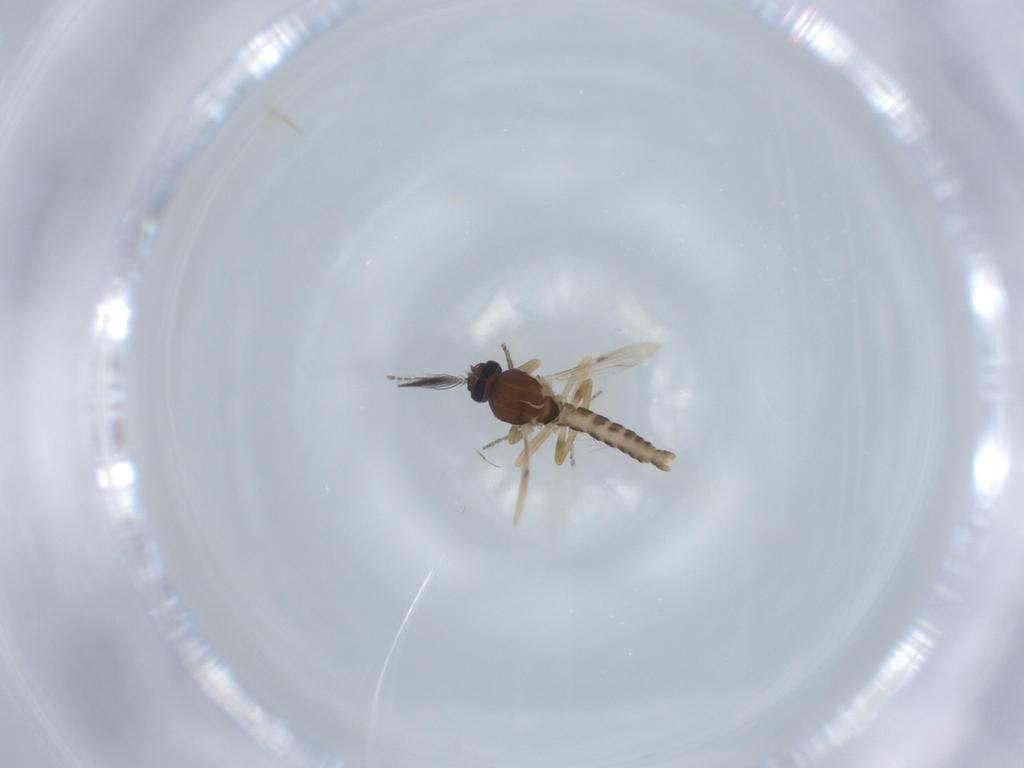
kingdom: Animalia
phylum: Arthropoda
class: Insecta
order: Diptera
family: Ceratopogonidae
